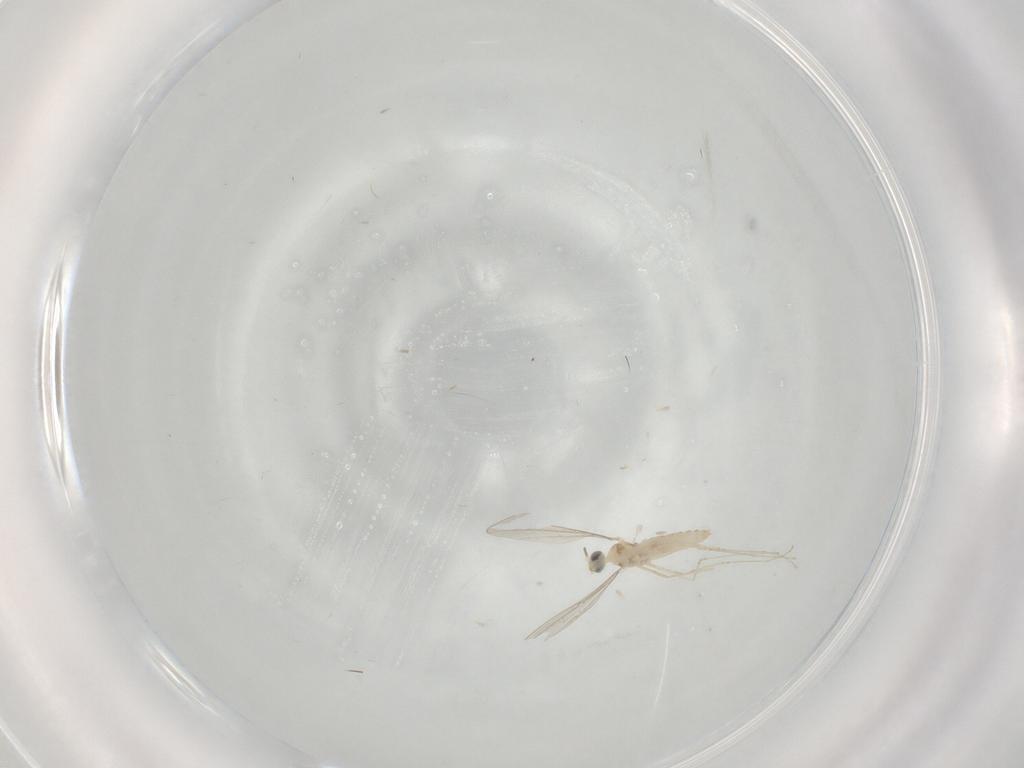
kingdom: Animalia
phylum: Arthropoda
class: Insecta
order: Diptera
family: Cecidomyiidae
